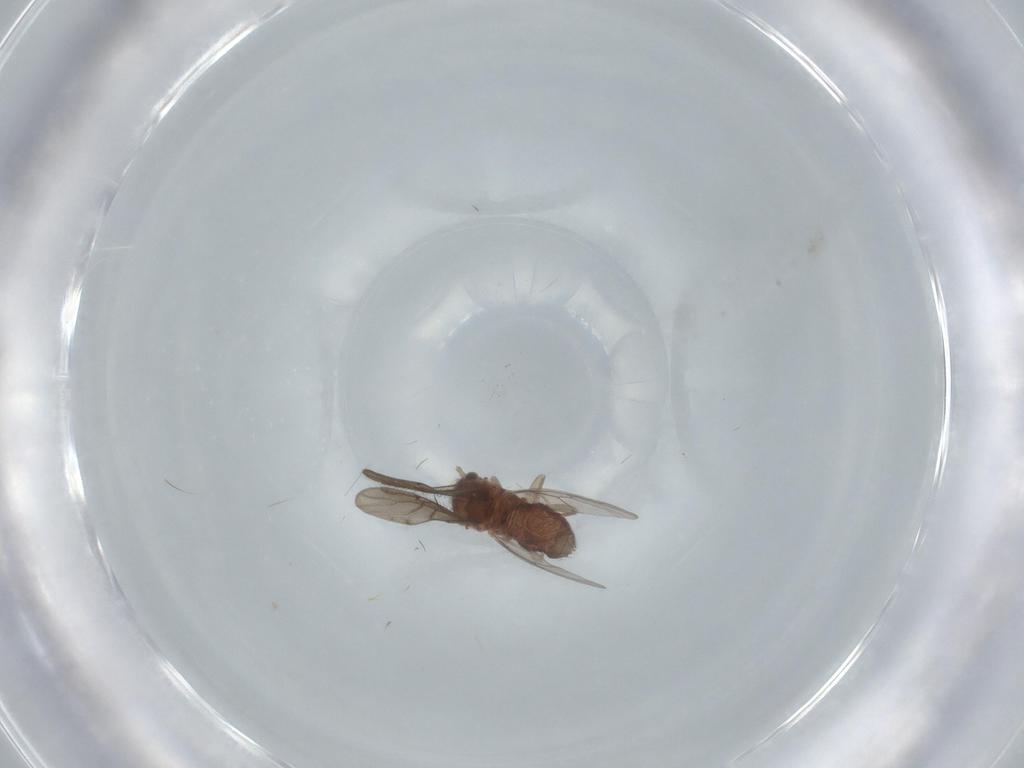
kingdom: Animalia
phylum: Arthropoda
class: Insecta
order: Psocodea
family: Ectopsocidae
